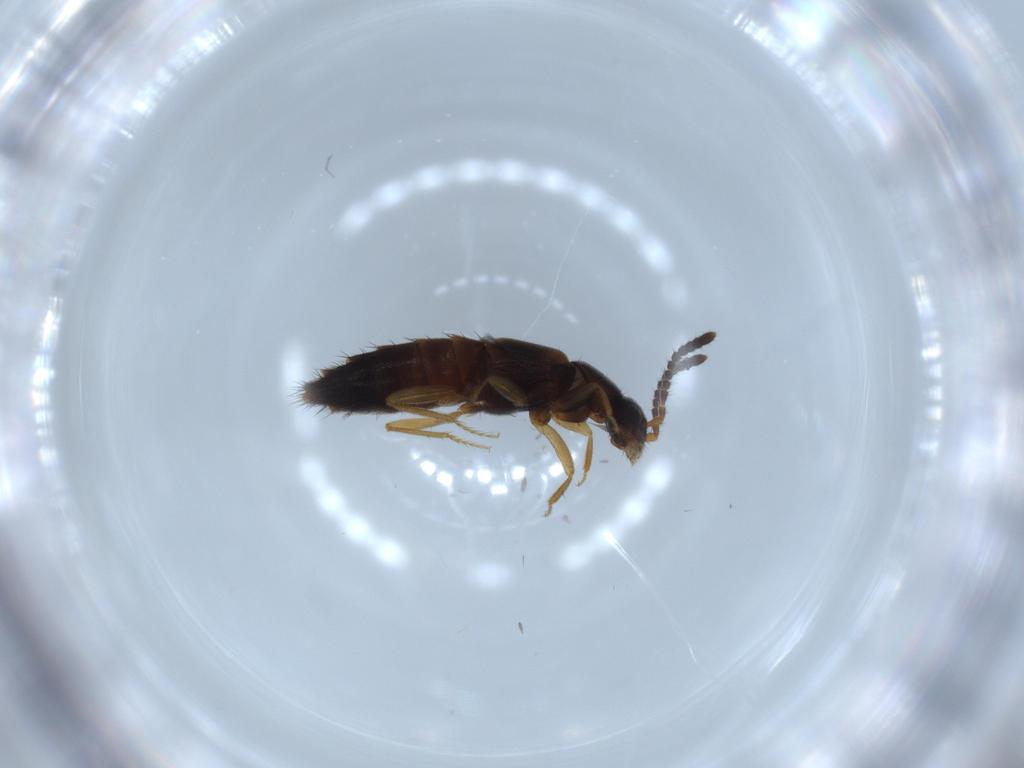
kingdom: Animalia
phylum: Arthropoda
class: Insecta
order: Coleoptera
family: Staphylinidae
